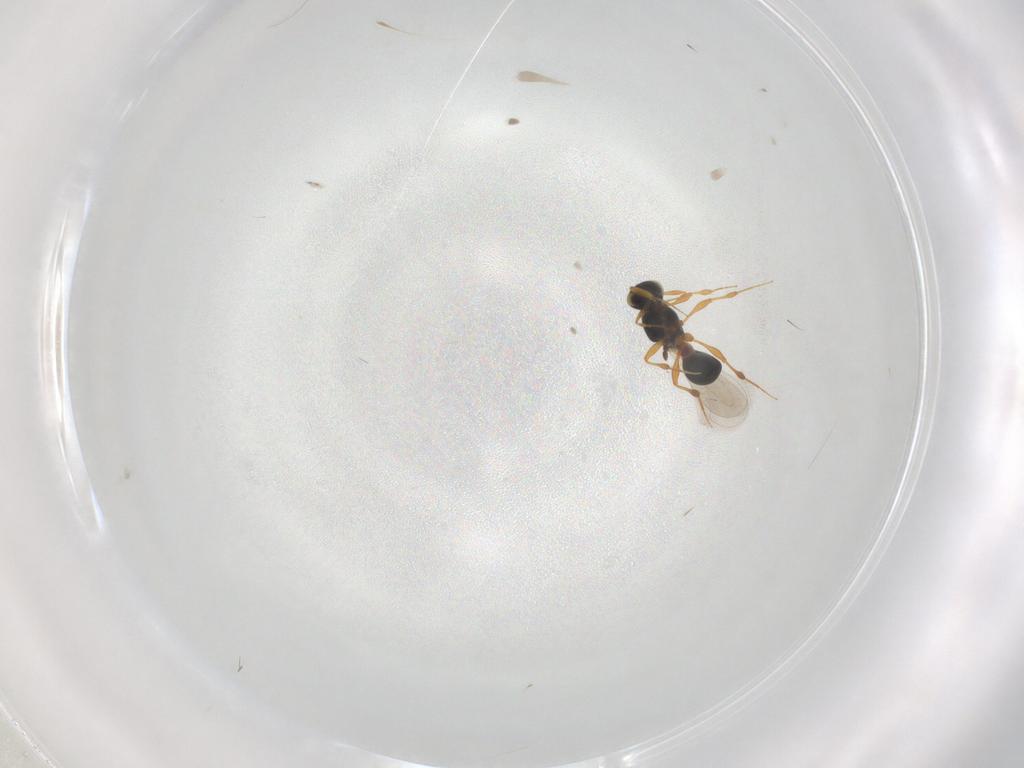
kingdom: Animalia
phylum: Arthropoda
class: Insecta
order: Hymenoptera
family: Platygastridae
